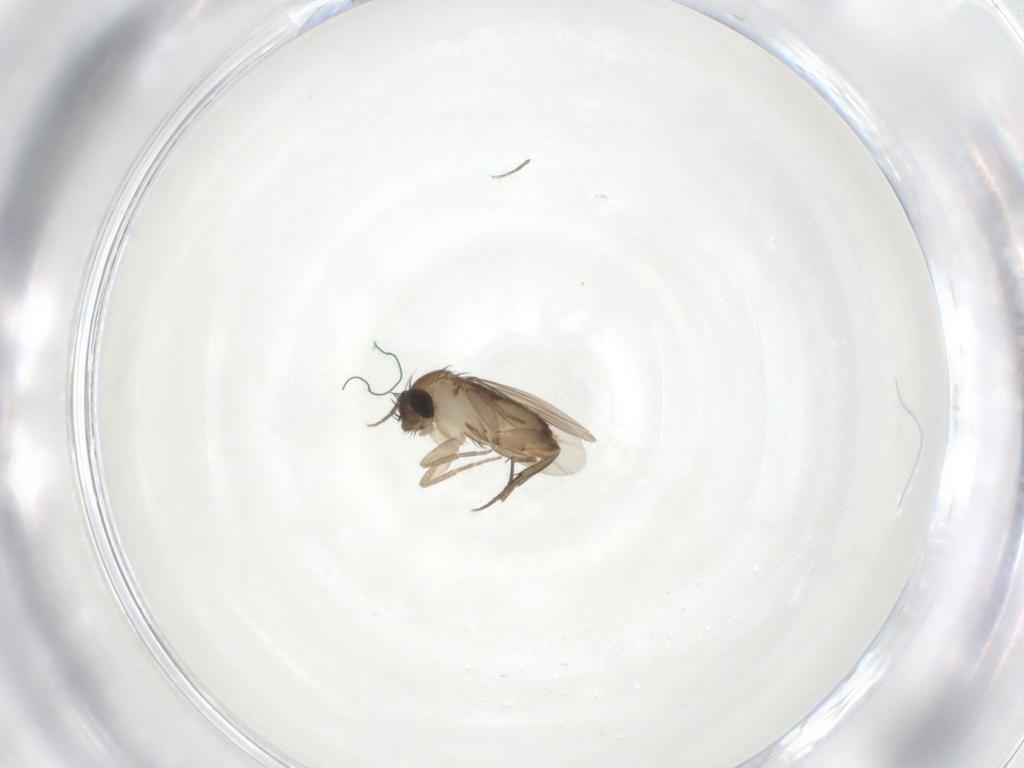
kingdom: Animalia
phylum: Arthropoda
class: Insecta
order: Diptera
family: Phoridae
